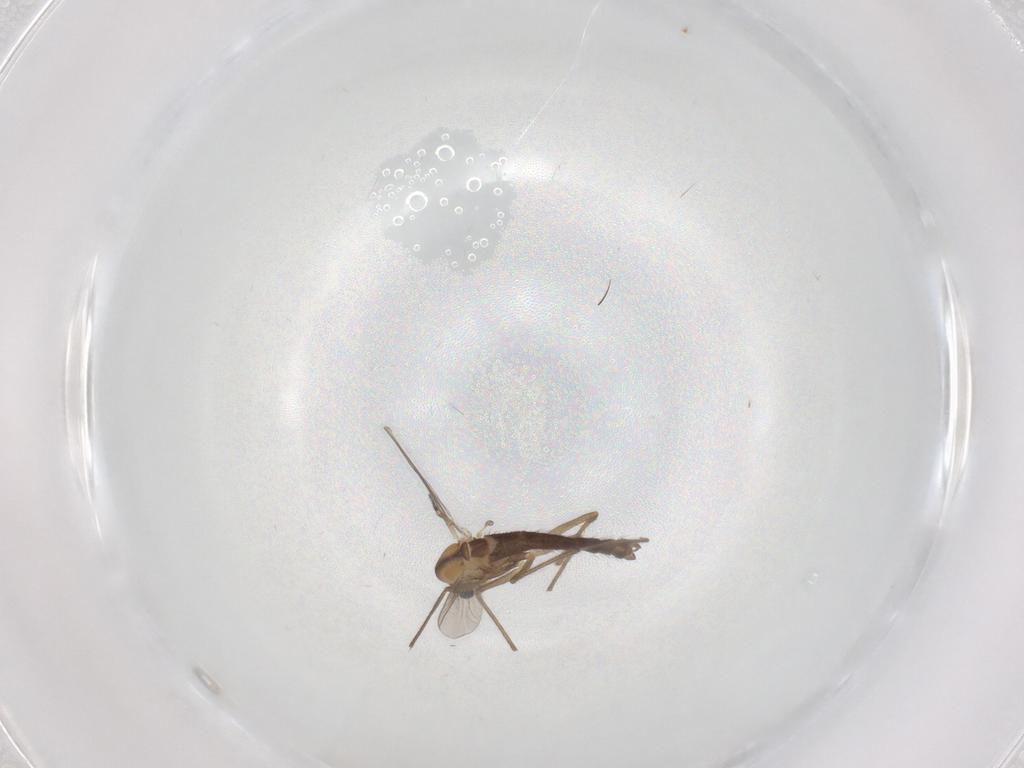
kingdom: Animalia
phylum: Arthropoda
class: Insecta
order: Diptera
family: Chironomidae
